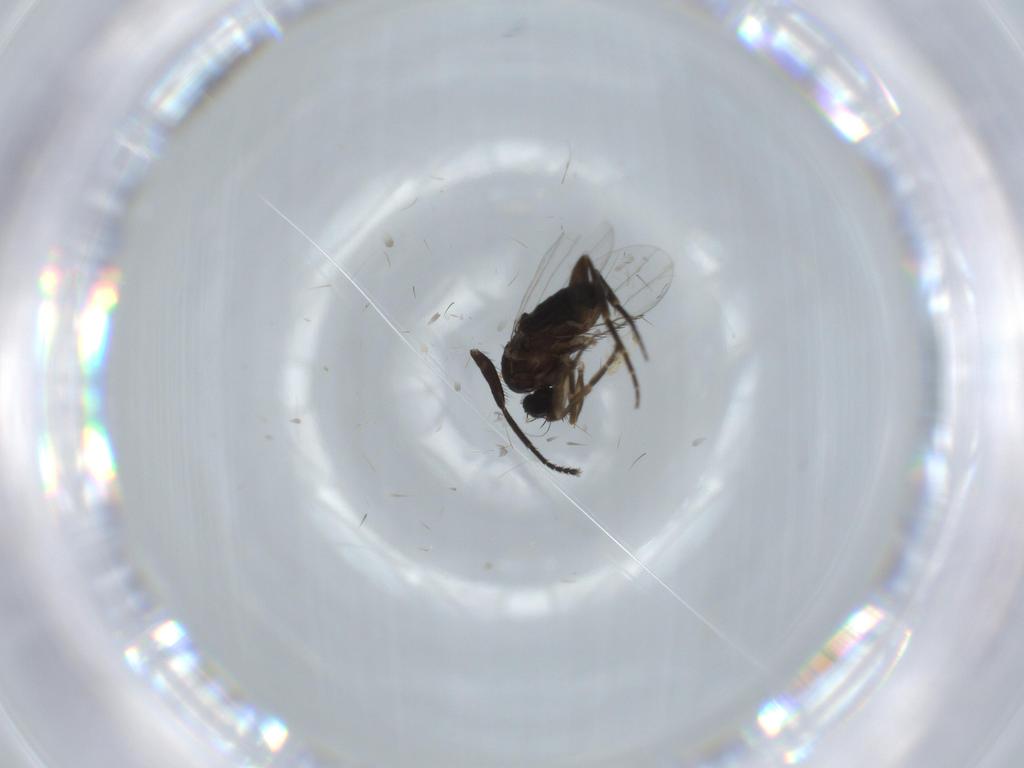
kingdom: Animalia
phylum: Arthropoda
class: Insecta
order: Diptera
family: Phoridae
